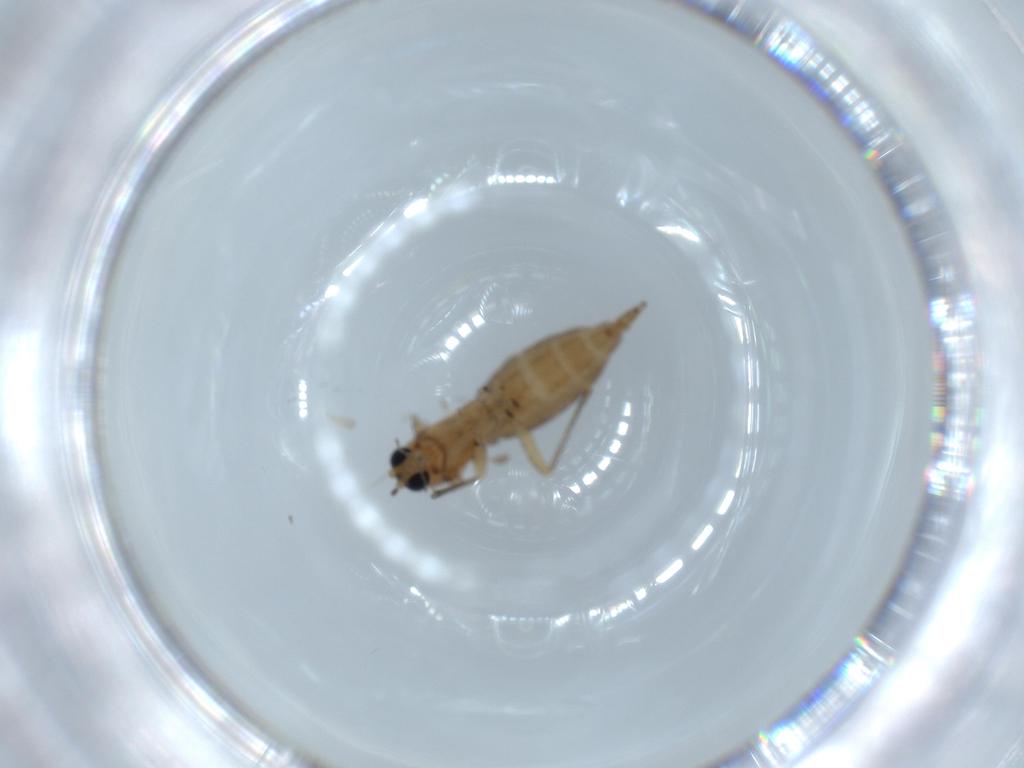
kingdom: Animalia
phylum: Arthropoda
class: Insecta
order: Diptera
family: Sciaridae
